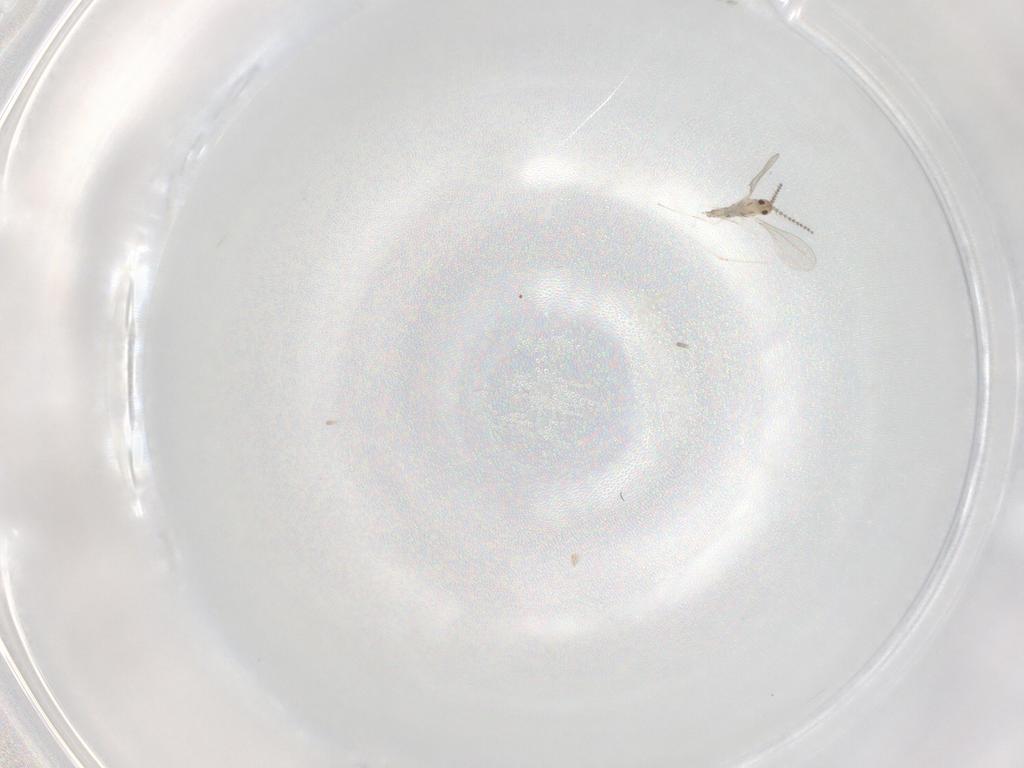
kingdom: Animalia
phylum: Arthropoda
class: Insecta
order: Diptera
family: Cecidomyiidae
